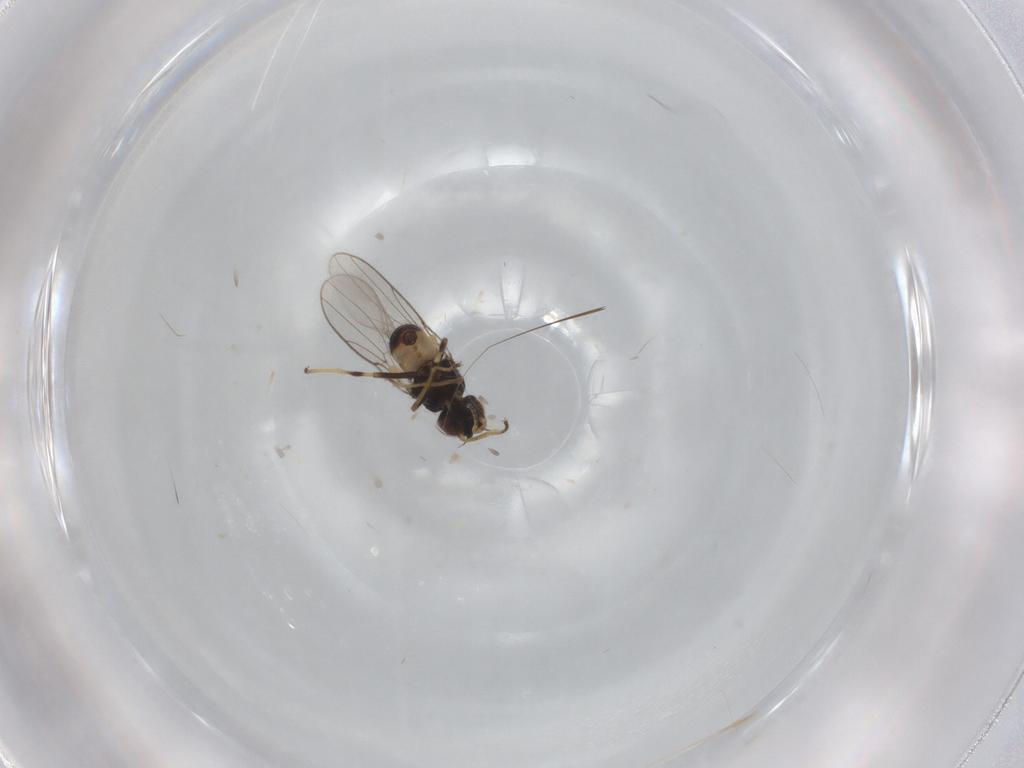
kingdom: Animalia
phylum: Arthropoda
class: Insecta
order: Diptera
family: Chloropidae
